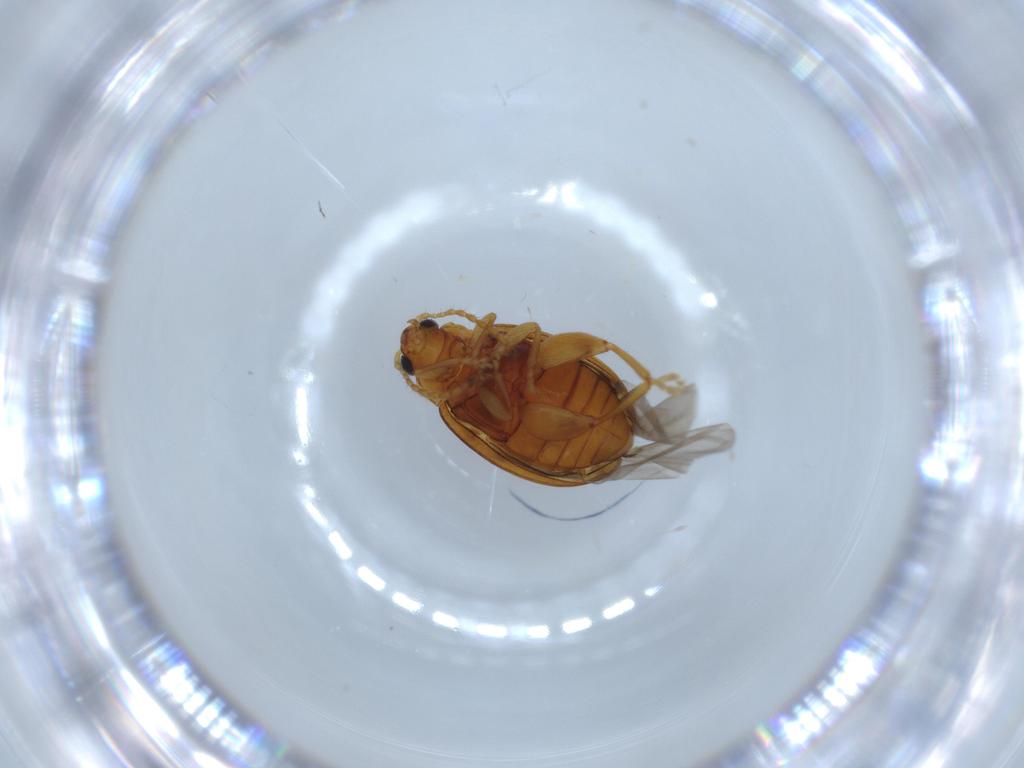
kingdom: Animalia
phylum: Arthropoda
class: Insecta
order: Coleoptera
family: Chrysomelidae
